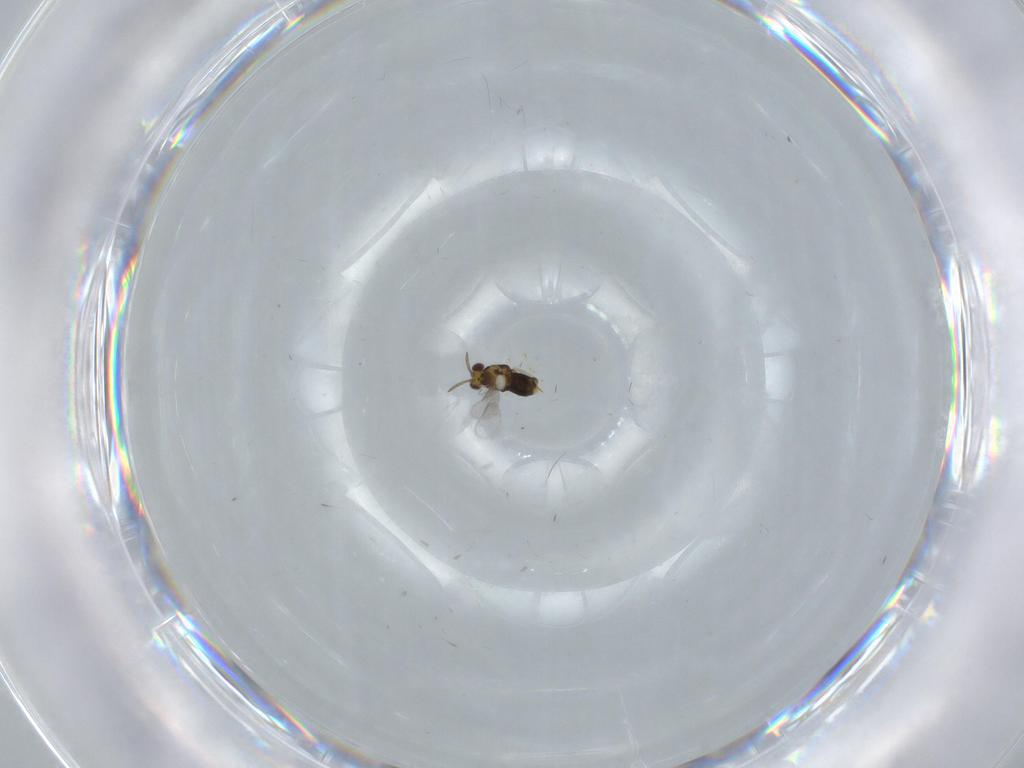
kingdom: Animalia
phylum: Arthropoda
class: Insecta
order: Hymenoptera
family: Aphelinidae
